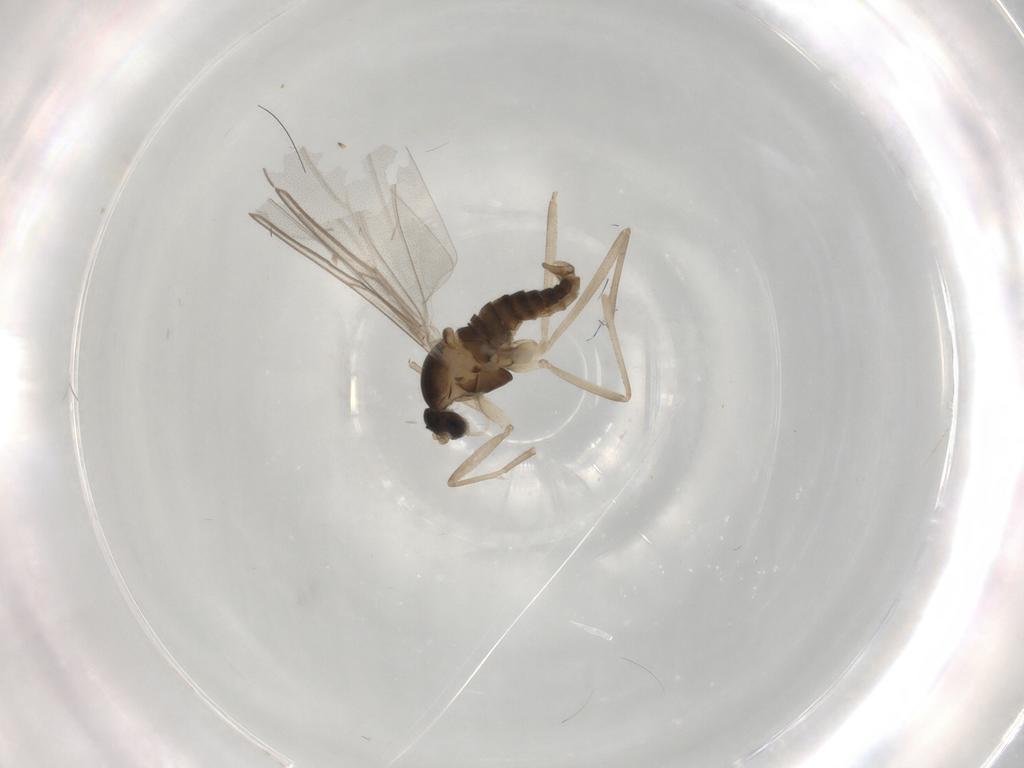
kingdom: Animalia
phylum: Arthropoda
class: Insecta
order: Diptera
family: Cecidomyiidae
